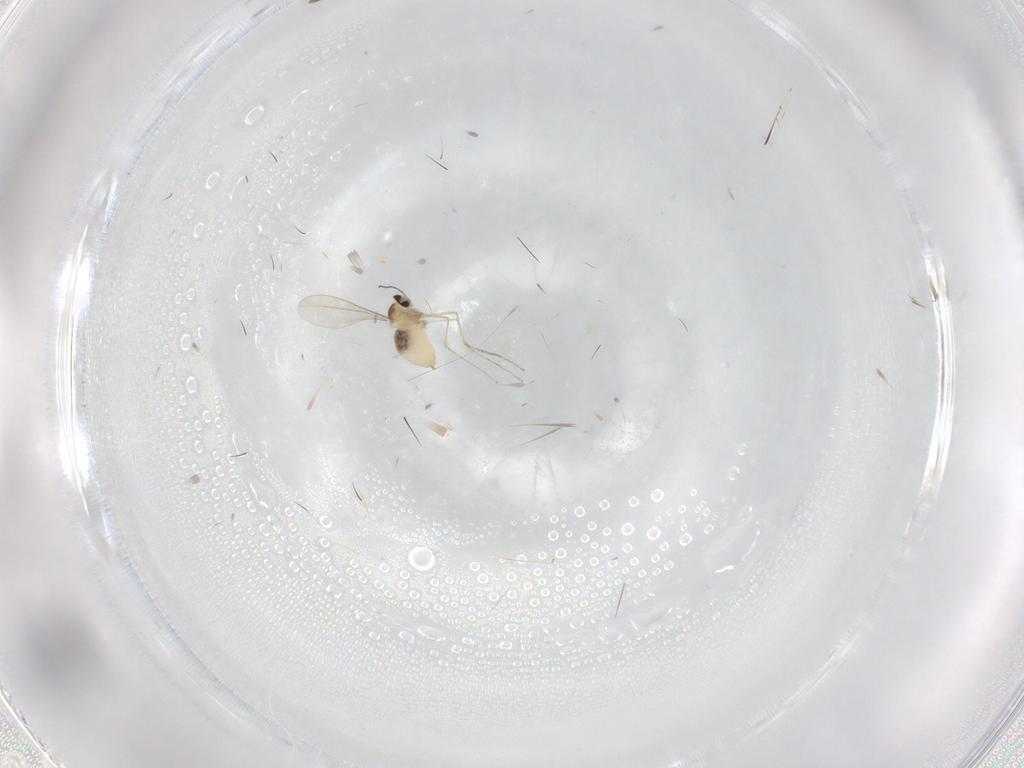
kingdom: Animalia
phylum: Arthropoda
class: Insecta
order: Diptera
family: Cecidomyiidae
